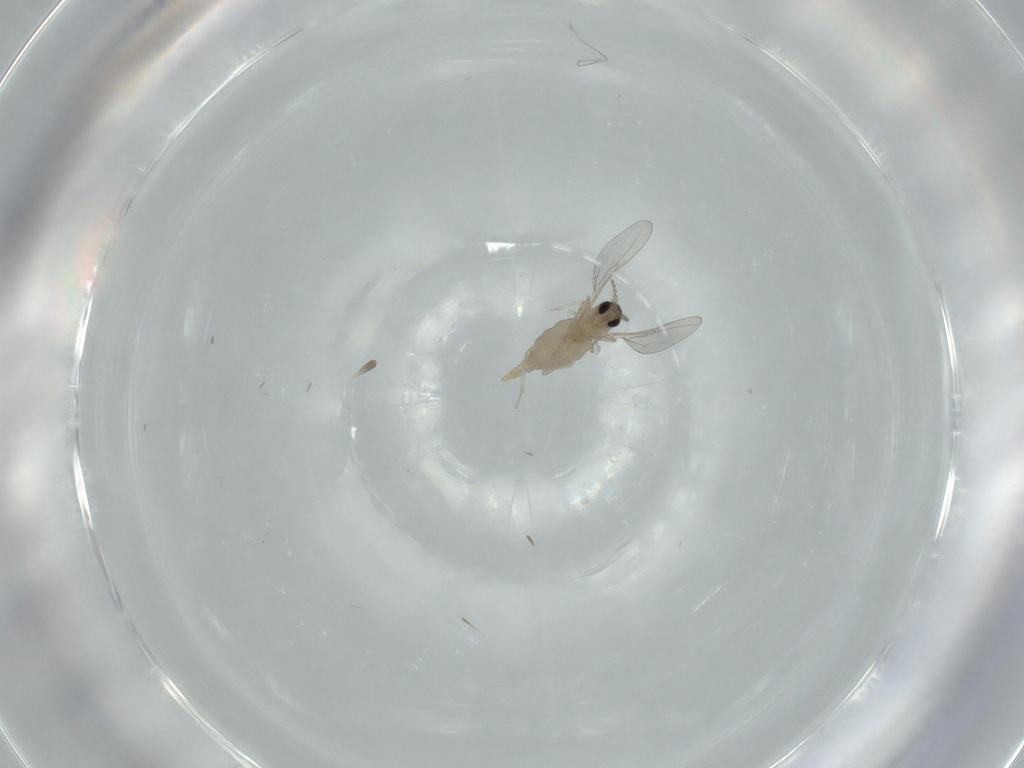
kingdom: Animalia
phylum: Arthropoda
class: Insecta
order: Diptera
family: Cecidomyiidae
